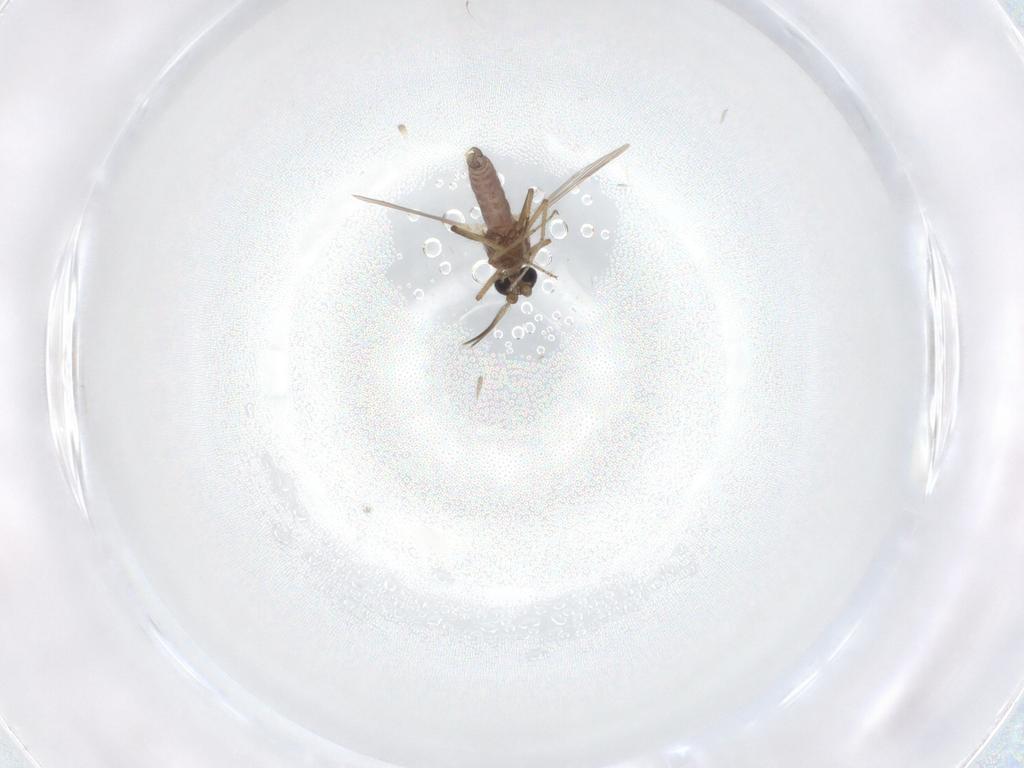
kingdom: Animalia
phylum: Arthropoda
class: Insecta
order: Diptera
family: Ceratopogonidae
